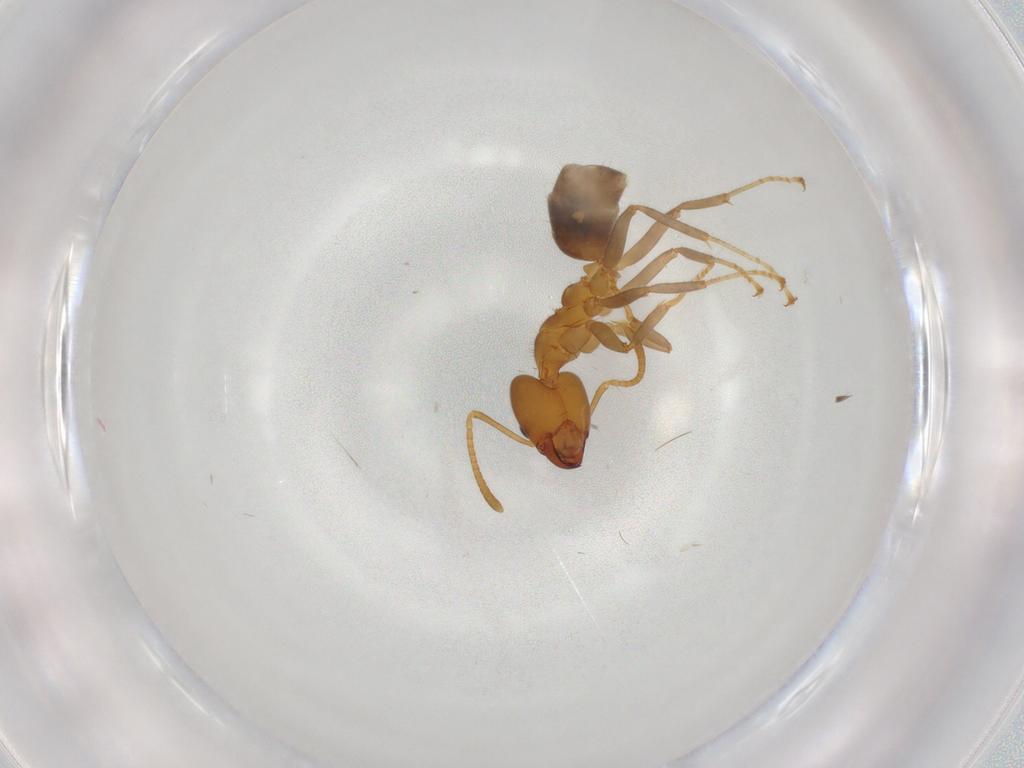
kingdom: Animalia
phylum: Arthropoda
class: Insecta
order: Hymenoptera
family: Formicidae
